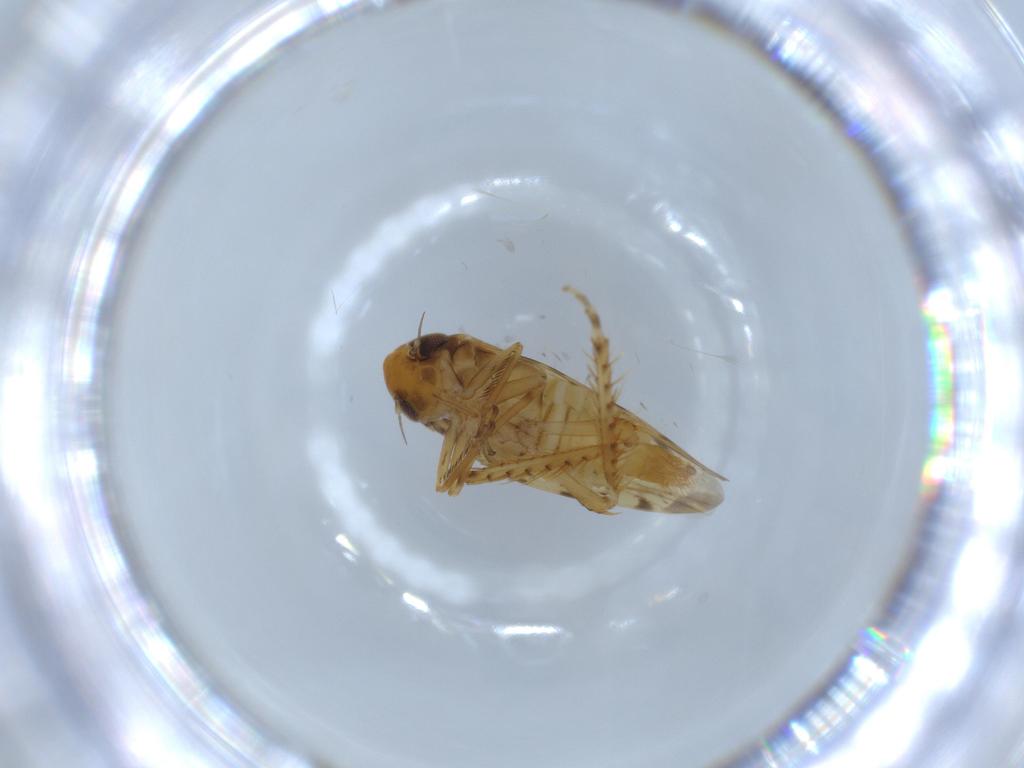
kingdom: Animalia
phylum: Arthropoda
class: Insecta
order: Hemiptera
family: Cicadellidae
